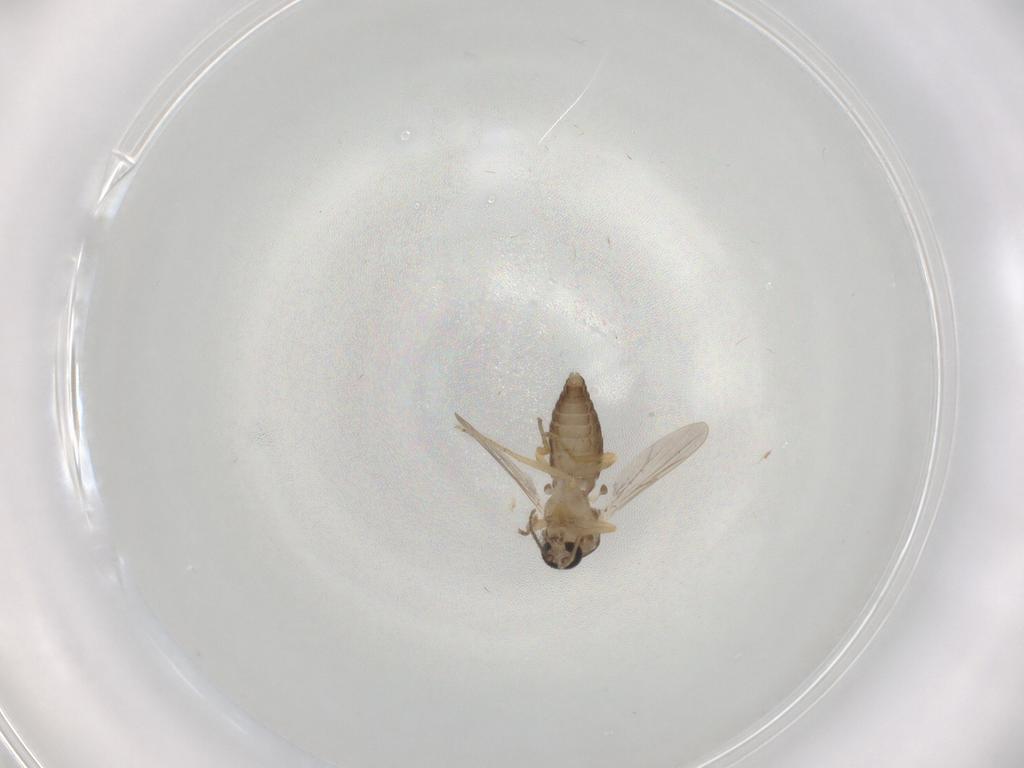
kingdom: Animalia
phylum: Arthropoda
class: Insecta
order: Diptera
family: Ceratopogonidae
